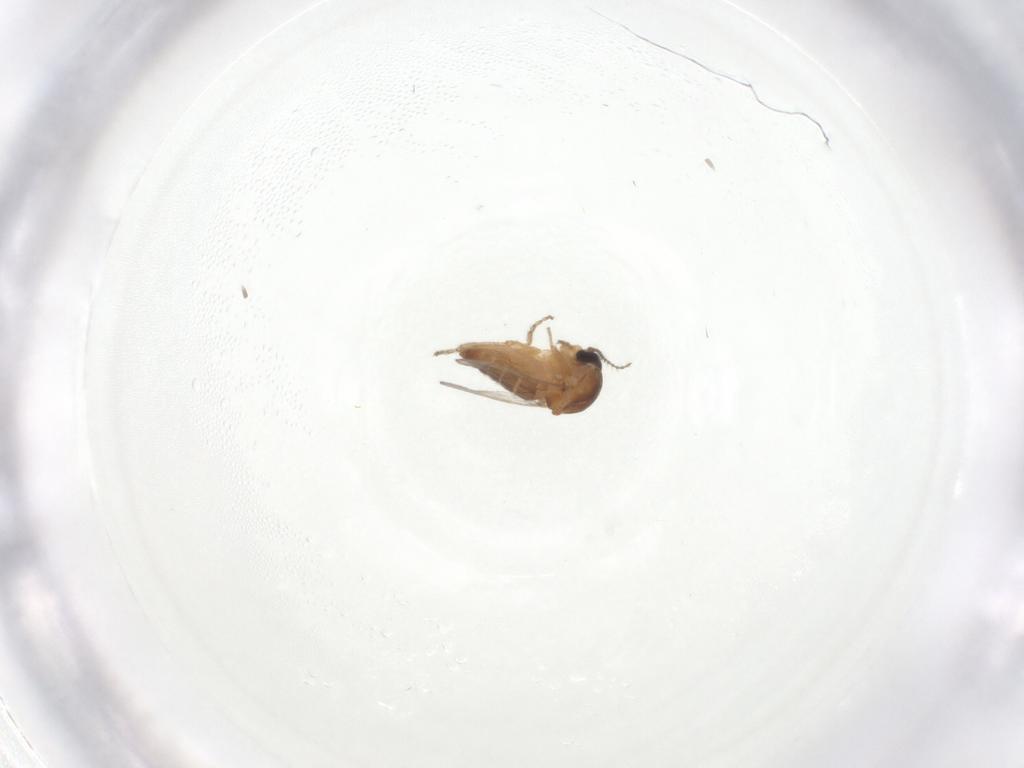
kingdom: Animalia
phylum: Arthropoda
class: Insecta
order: Diptera
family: Ceratopogonidae
